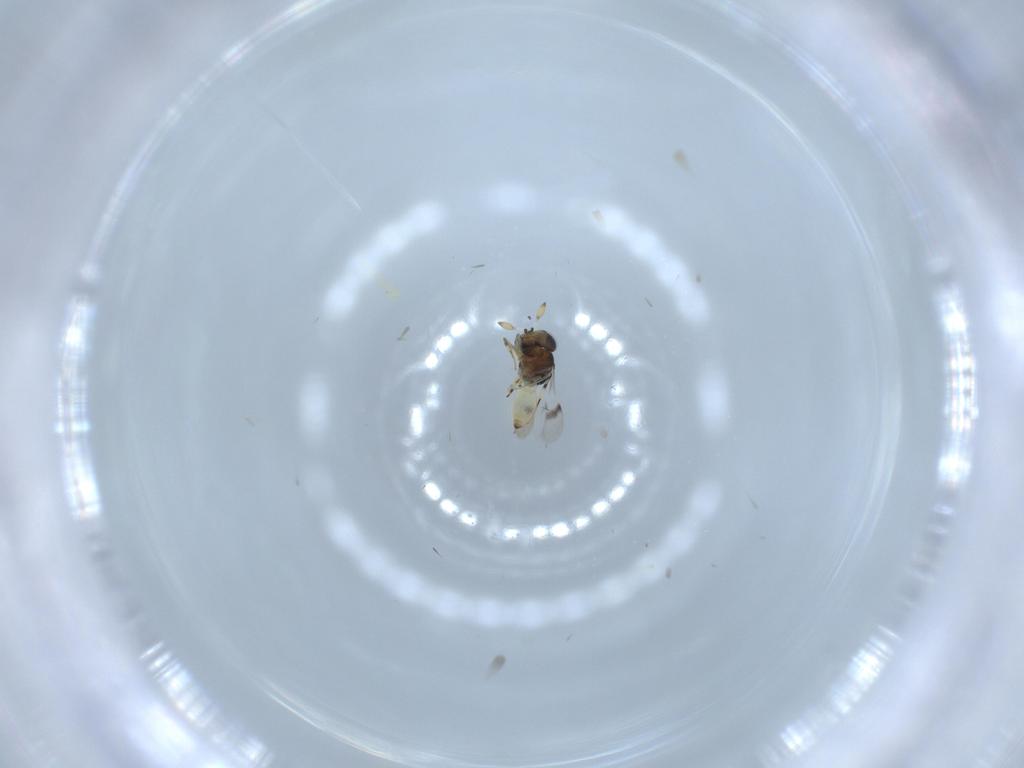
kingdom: Animalia
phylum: Arthropoda
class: Insecta
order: Hymenoptera
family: Scelionidae
